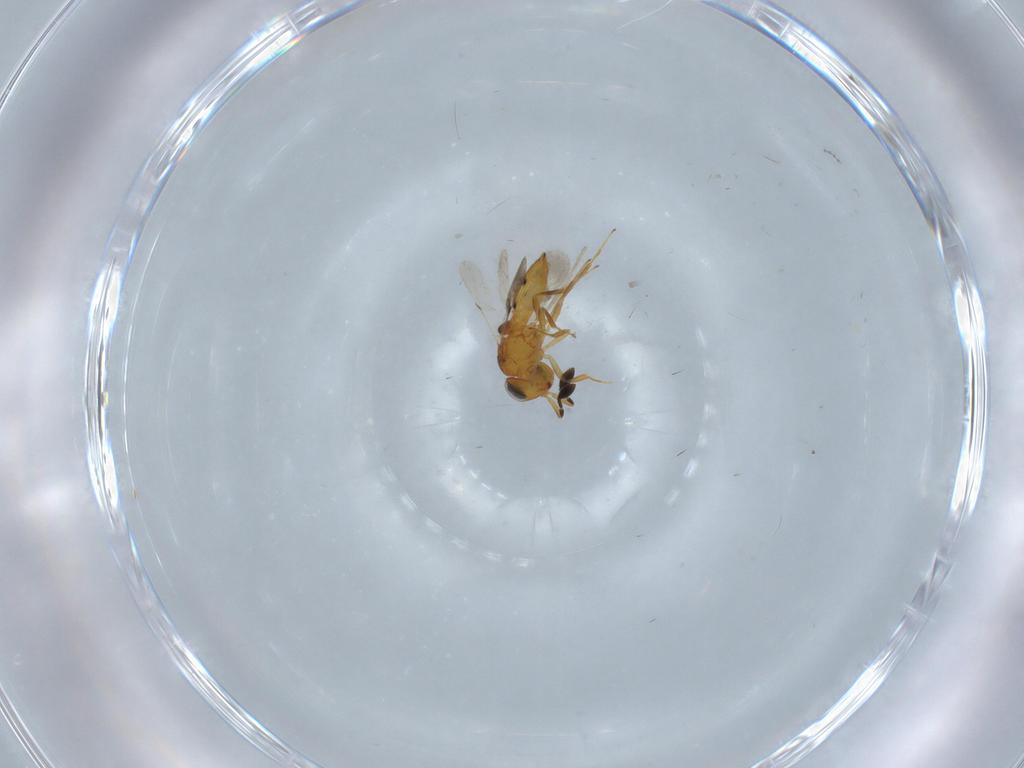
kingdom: Animalia
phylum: Arthropoda
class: Insecta
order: Hymenoptera
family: Scelionidae
